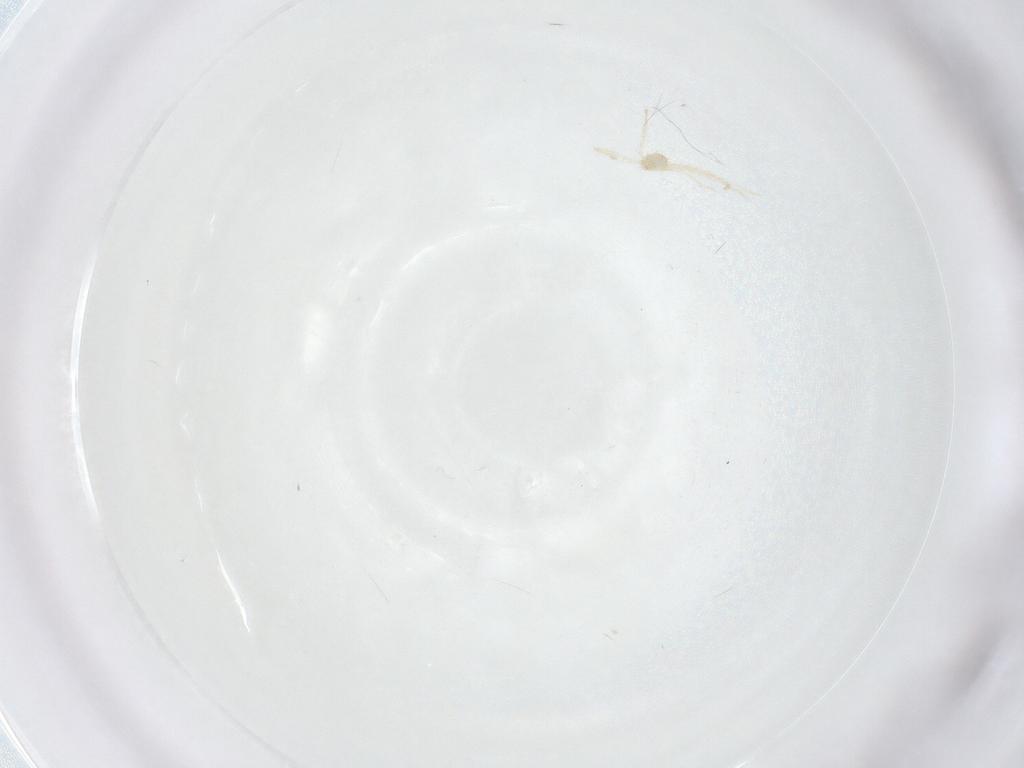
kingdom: Animalia
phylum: Arthropoda
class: Arachnida
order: Trombidiformes
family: Erythraeidae
